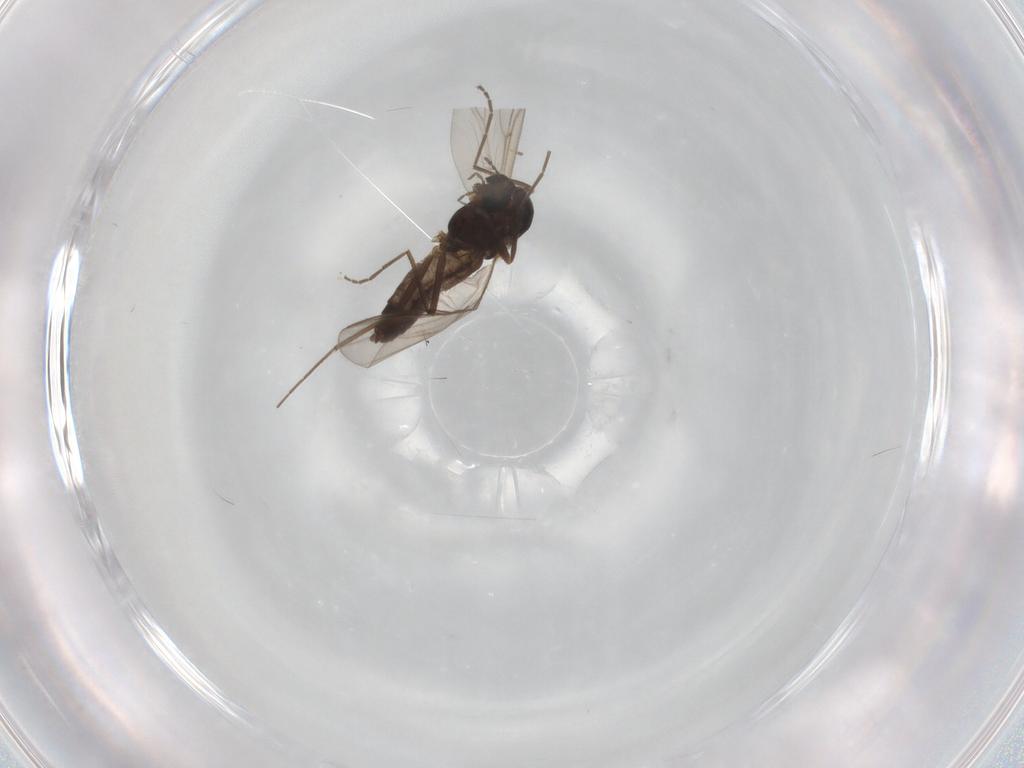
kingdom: Animalia
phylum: Arthropoda
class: Insecta
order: Diptera
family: Chironomidae
